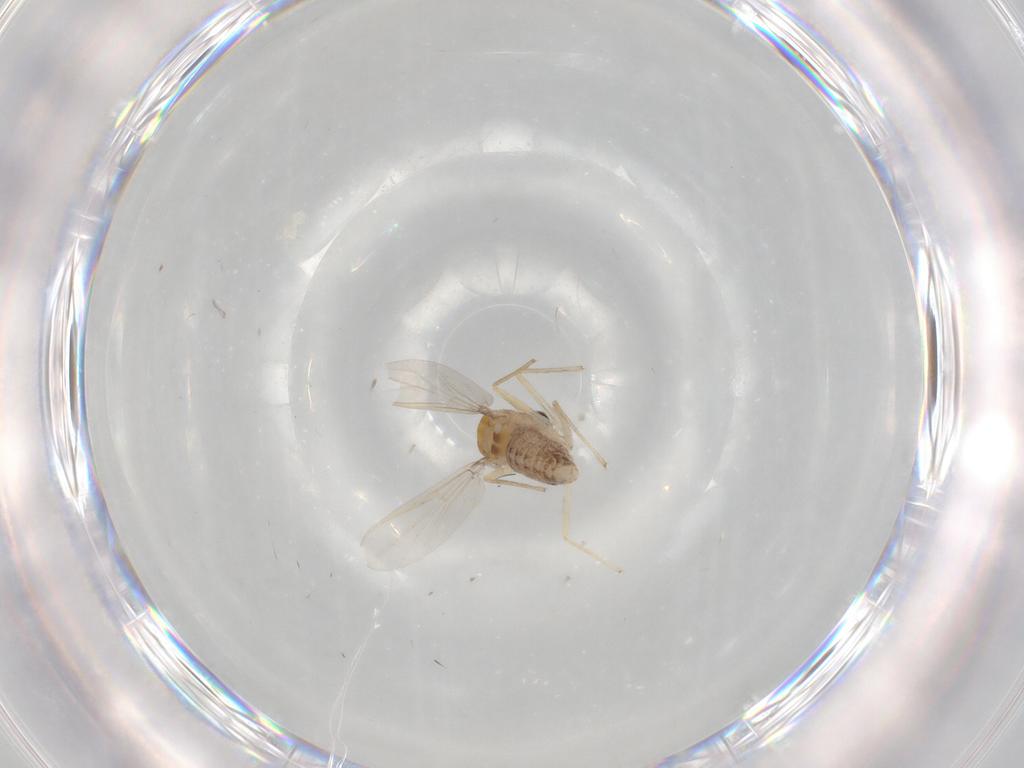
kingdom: Animalia
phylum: Arthropoda
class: Insecta
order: Diptera
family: Chironomidae
